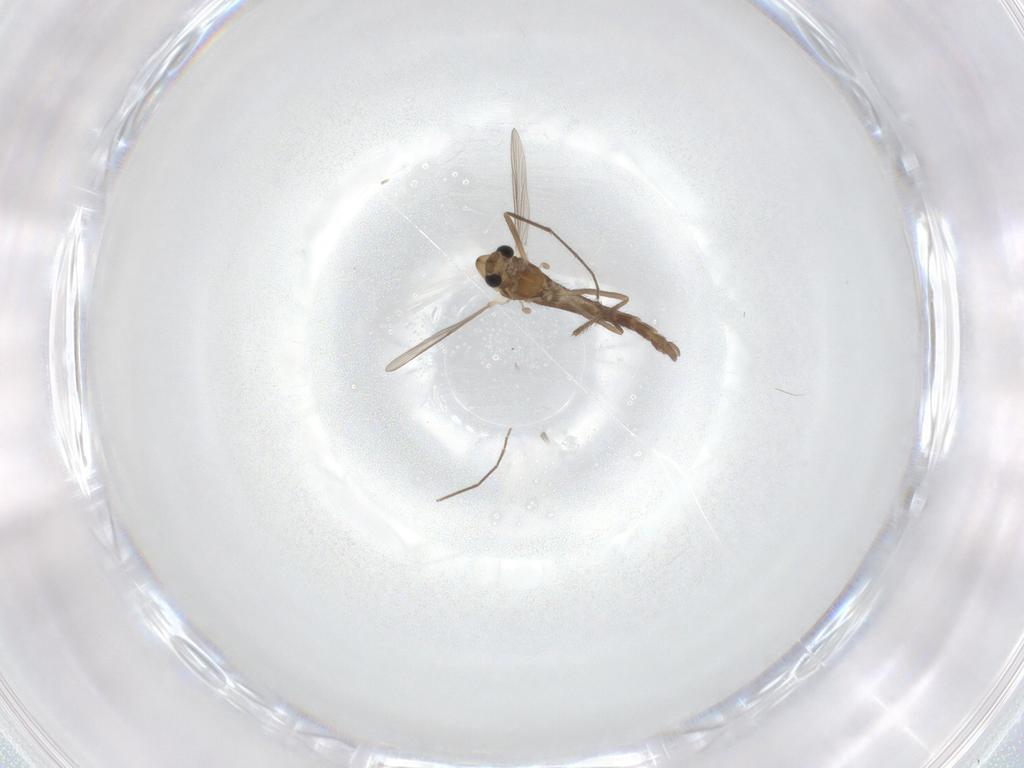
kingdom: Animalia
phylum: Arthropoda
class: Insecta
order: Diptera
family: Chironomidae
